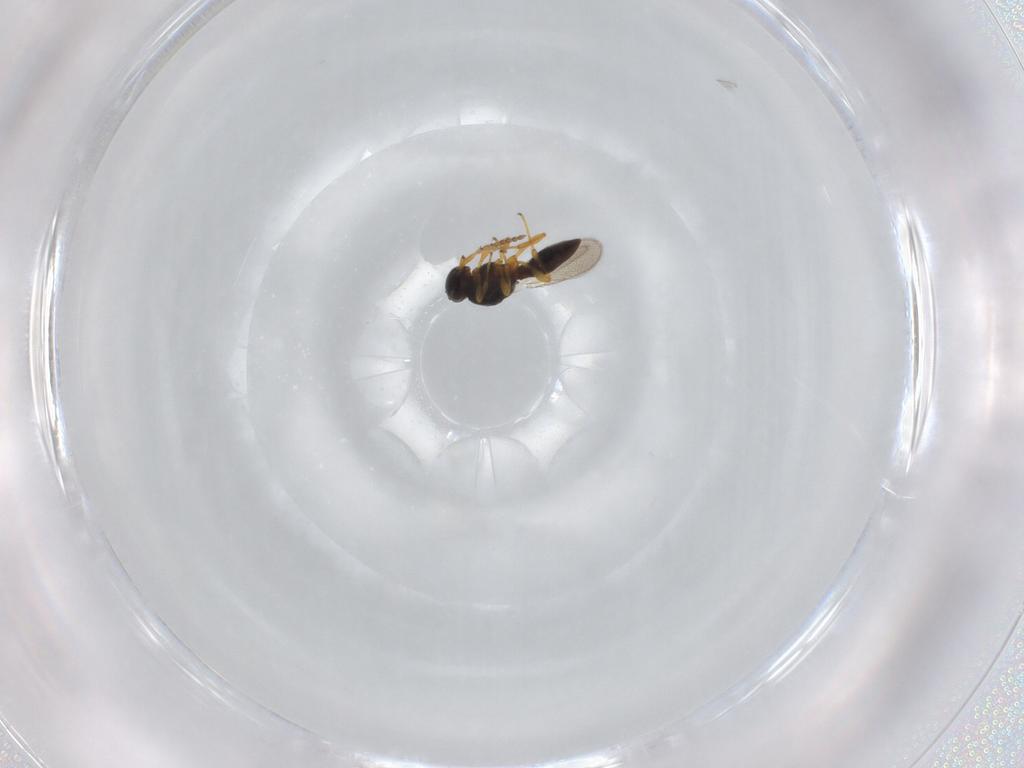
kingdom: Animalia
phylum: Arthropoda
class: Insecta
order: Hymenoptera
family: Platygastridae
